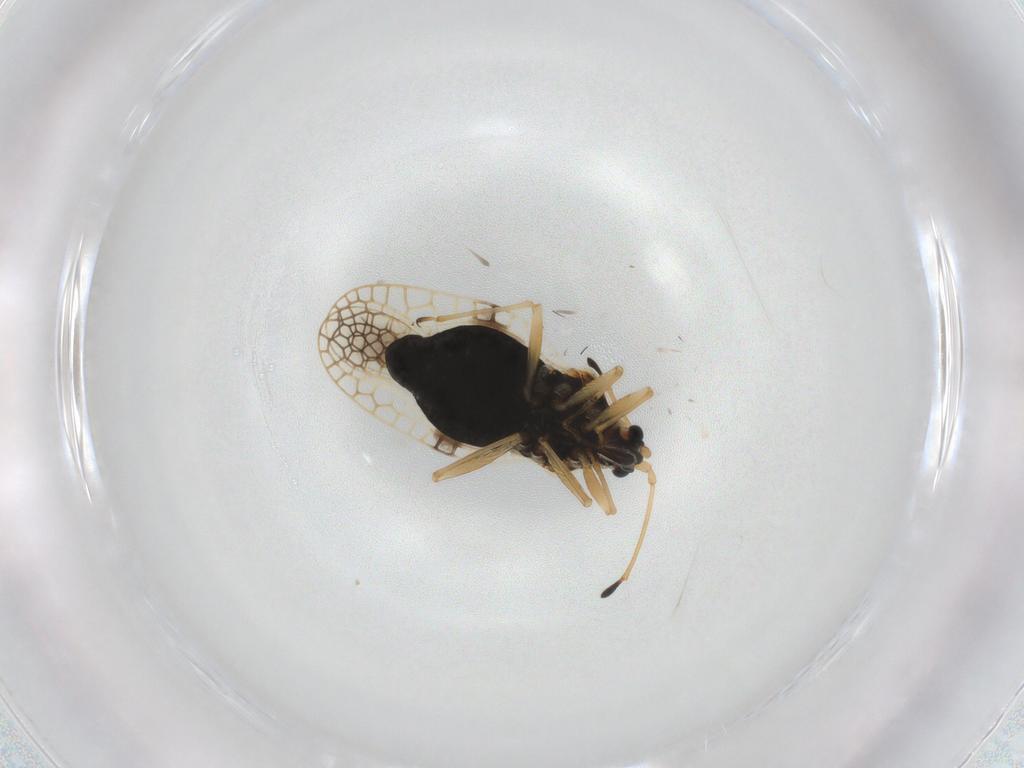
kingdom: Animalia
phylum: Arthropoda
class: Insecta
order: Hemiptera
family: Tingidae
